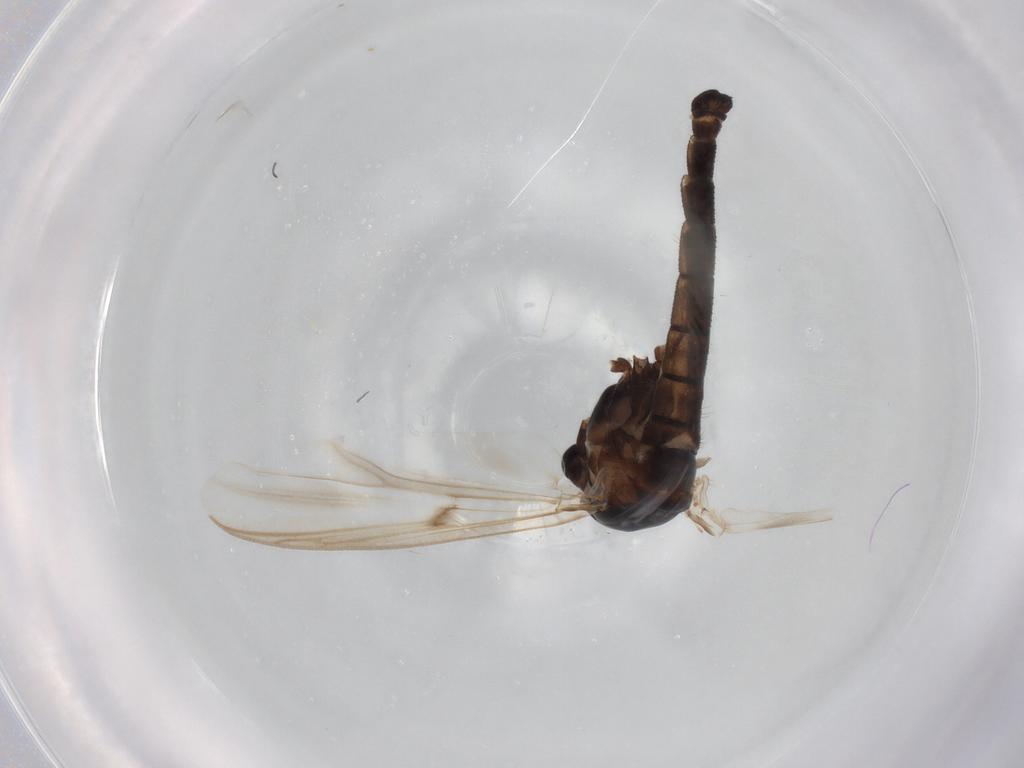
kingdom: Animalia
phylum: Arthropoda
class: Insecta
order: Diptera
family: Chironomidae
